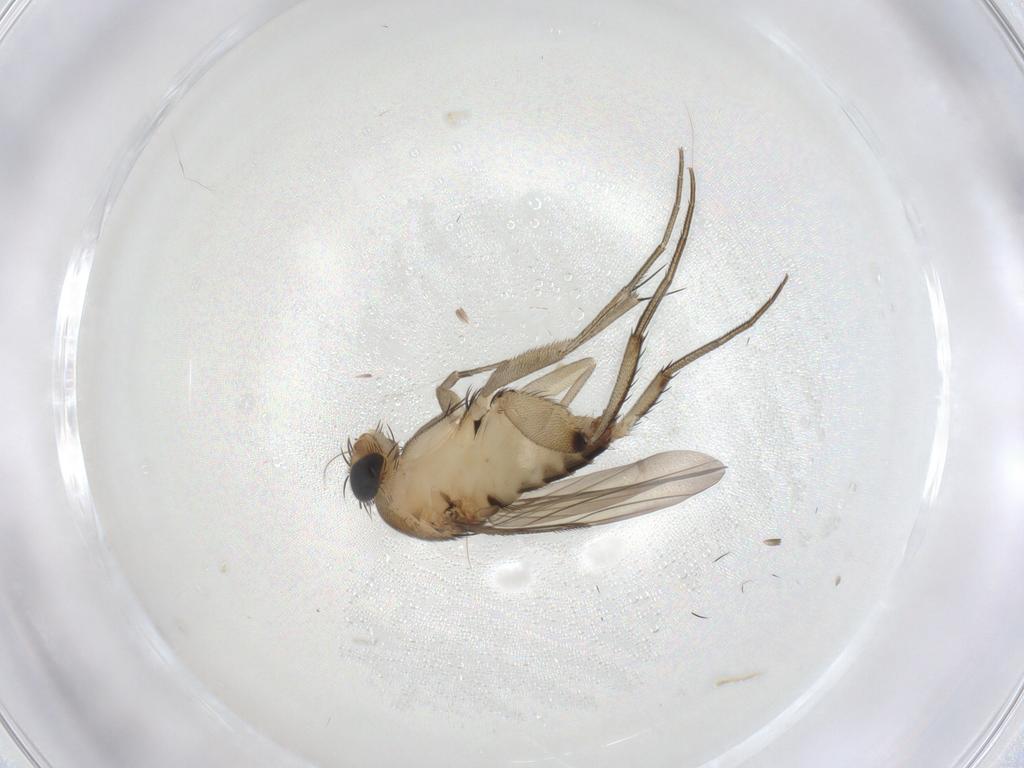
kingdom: Animalia
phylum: Arthropoda
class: Insecta
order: Diptera
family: Phoridae
